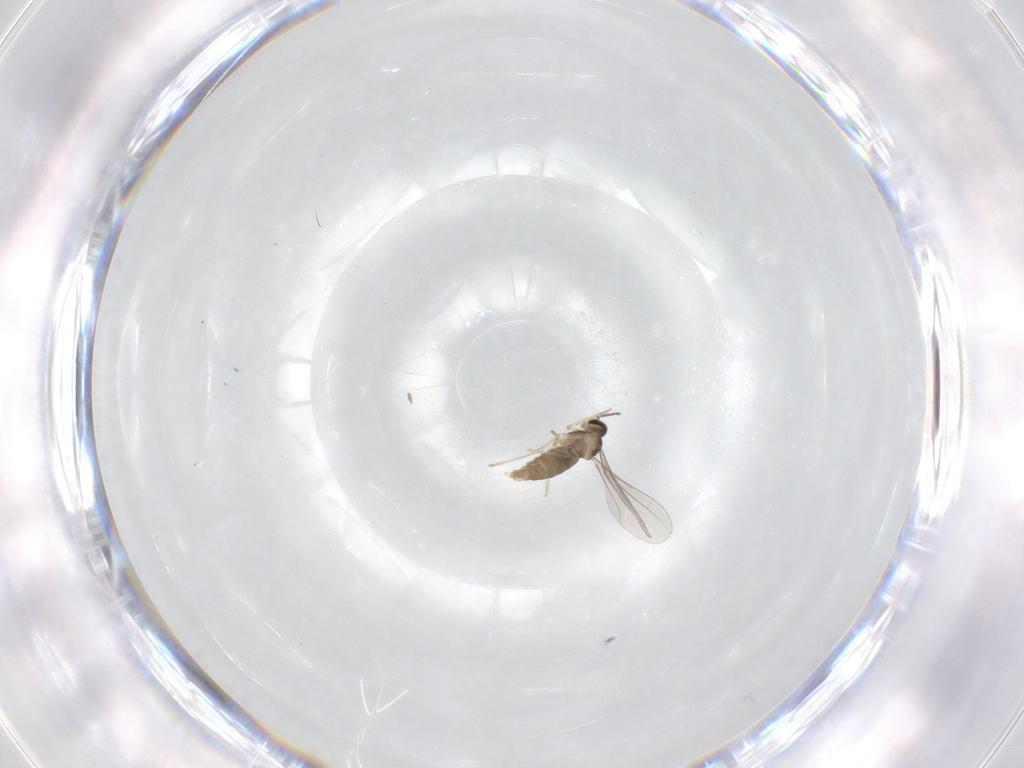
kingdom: Animalia
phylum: Arthropoda
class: Insecta
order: Diptera
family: Chironomidae
